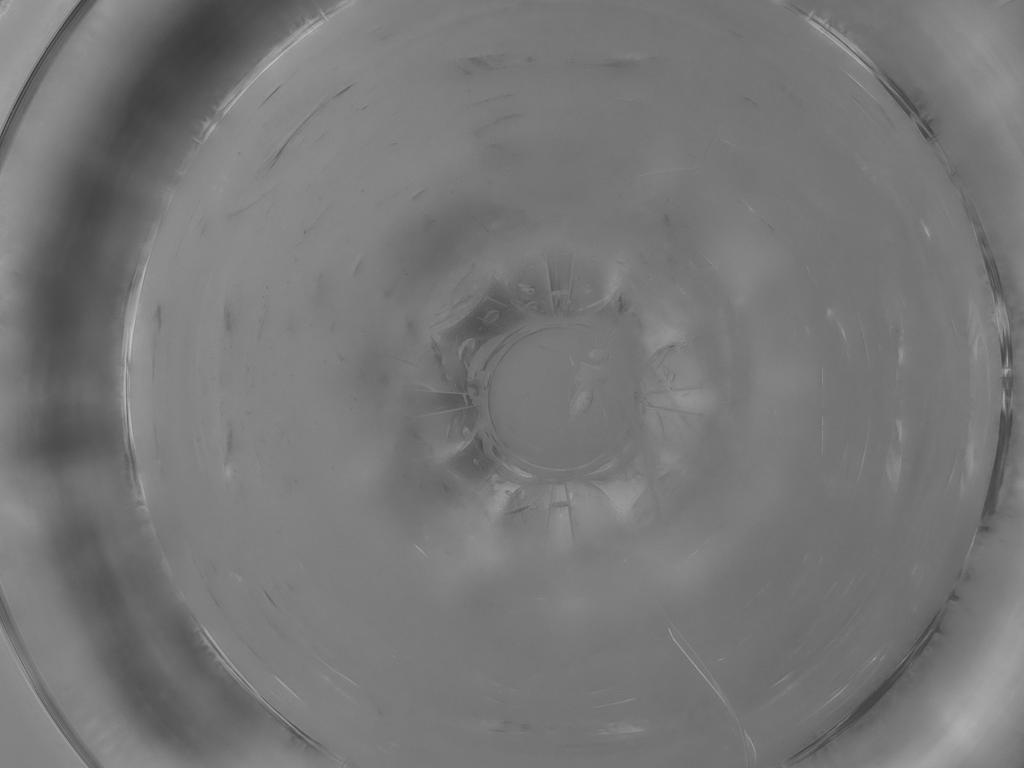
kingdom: Animalia
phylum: Arthropoda
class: Insecta
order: Diptera
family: Cecidomyiidae
